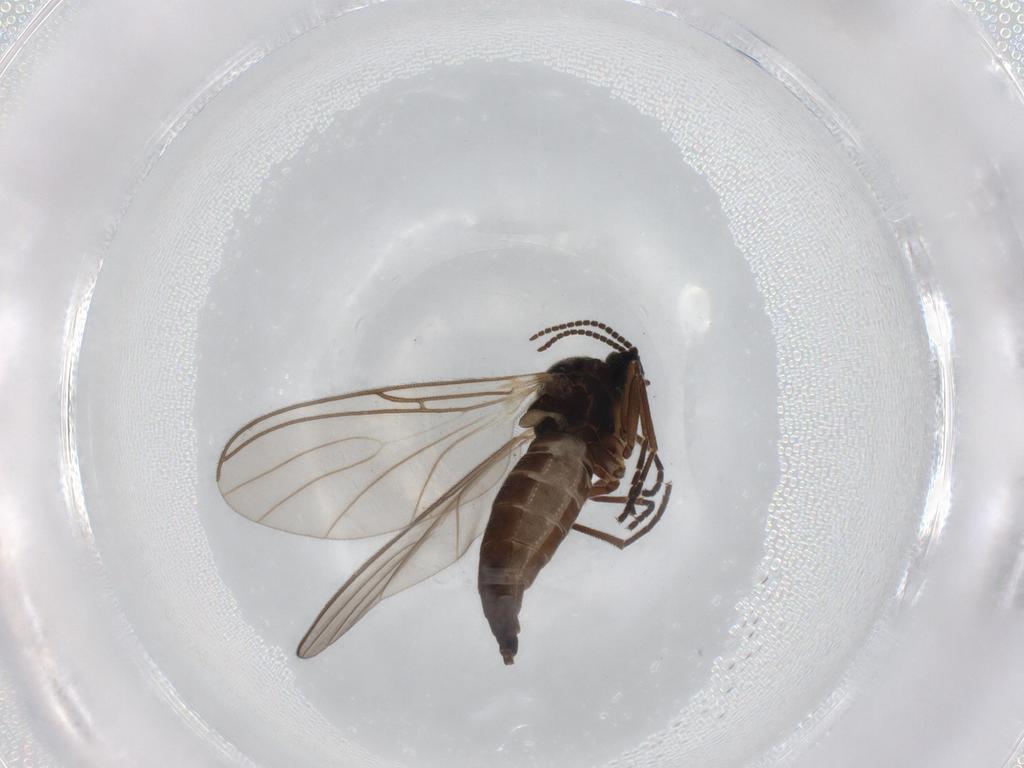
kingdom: Animalia
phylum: Arthropoda
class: Insecta
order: Diptera
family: Sciaridae
